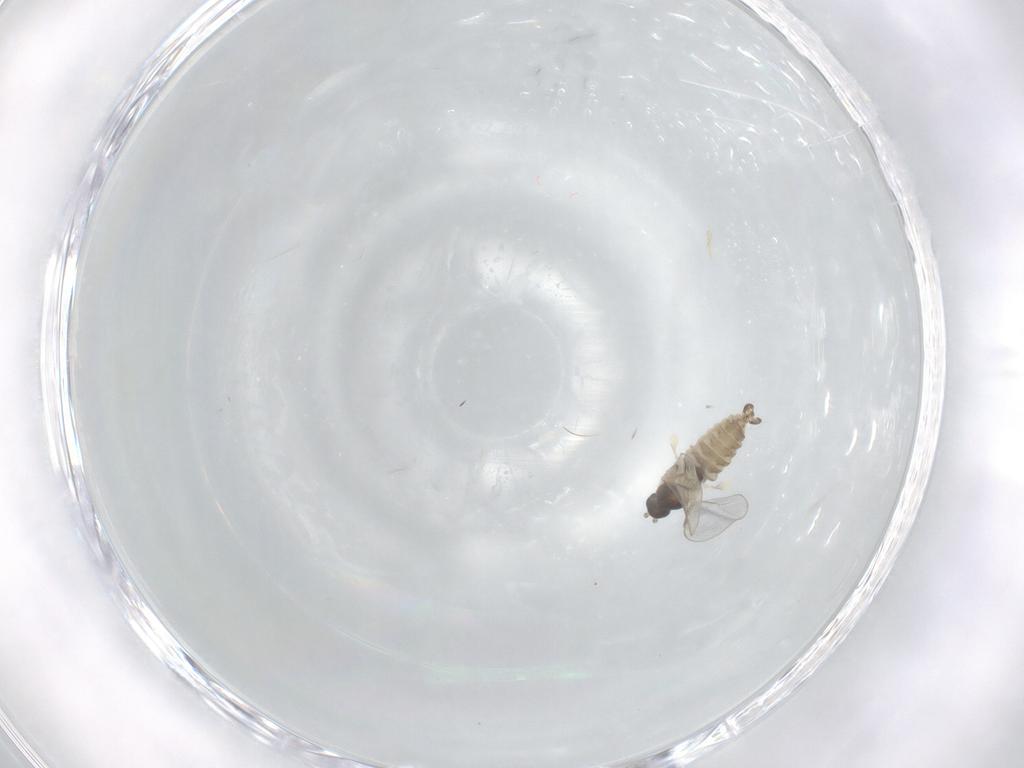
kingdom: Animalia
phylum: Arthropoda
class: Insecta
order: Diptera
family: Cecidomyiidae
